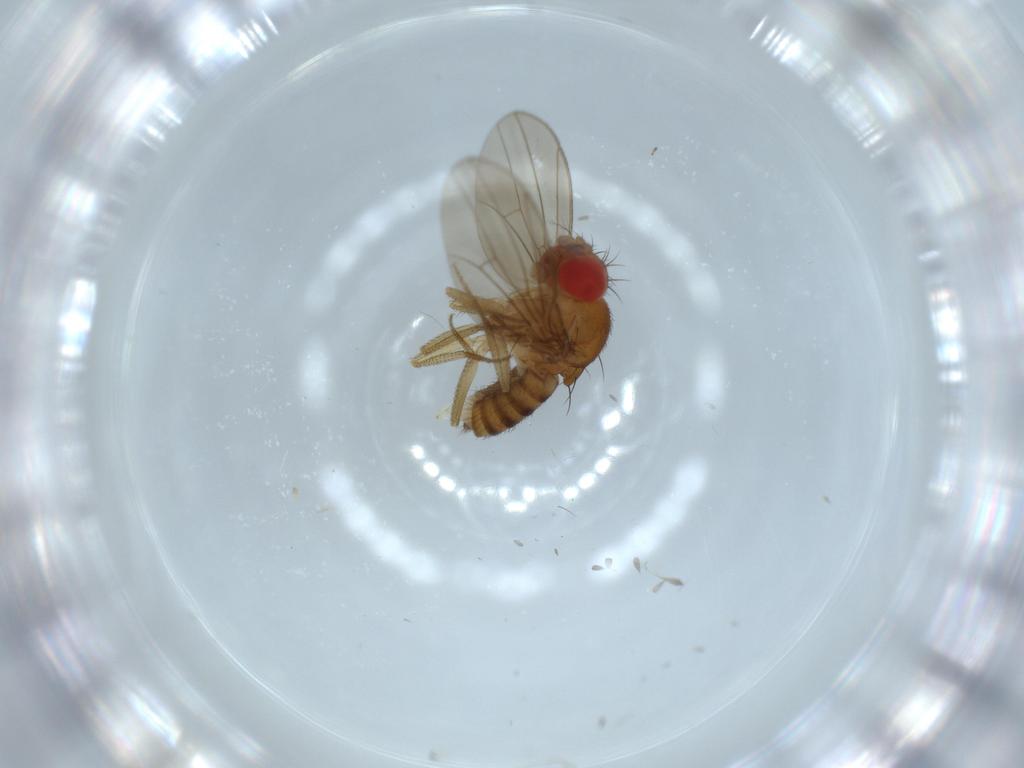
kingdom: Animalia
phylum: Arthropoda
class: Insecta
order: Diptera
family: Drosophilidae
